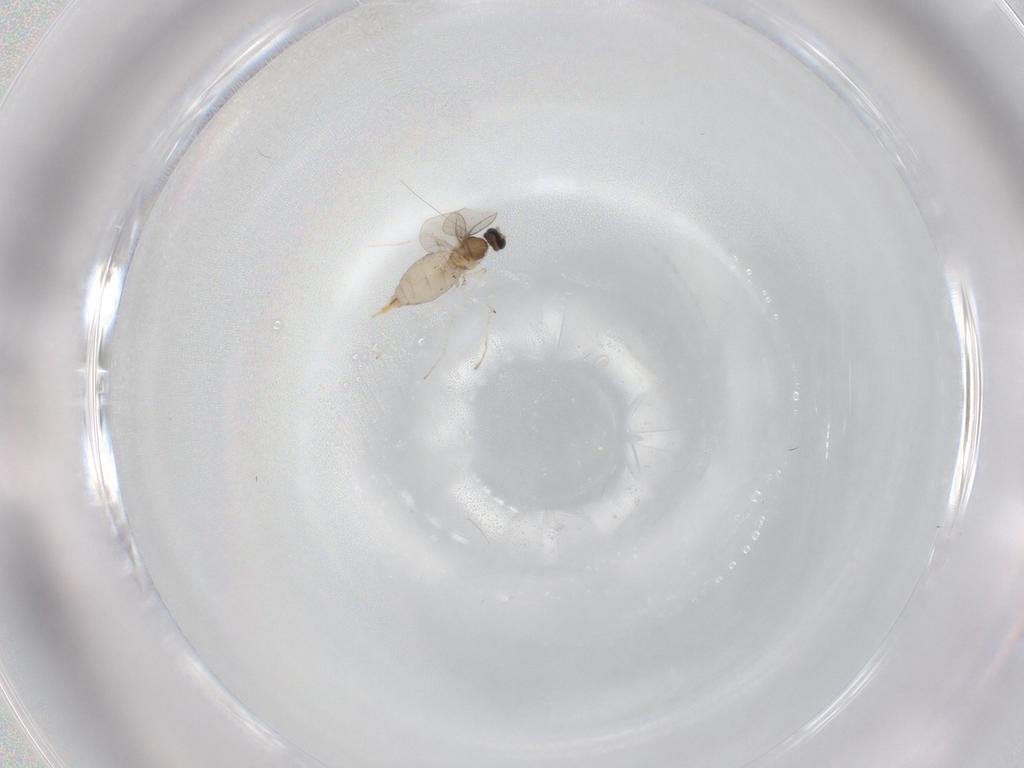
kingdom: Animalia
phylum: Arthropoda
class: Insecta
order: Diptera
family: Cecidomyiidae
